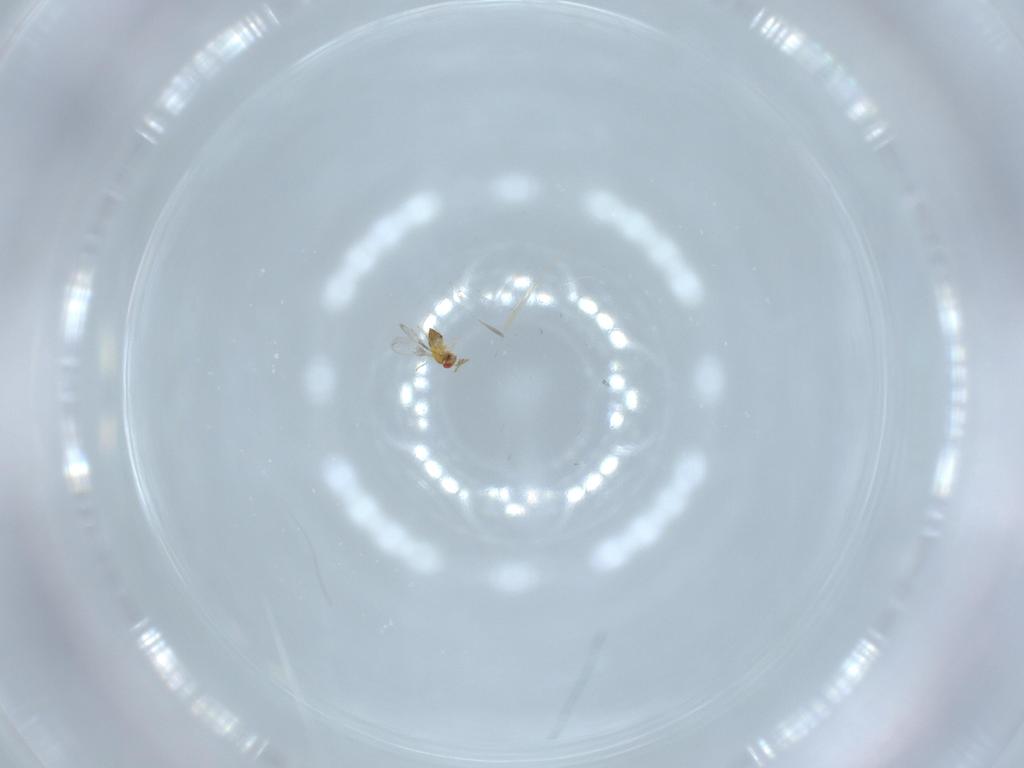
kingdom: Animalia
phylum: Arthropoda
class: Insecta
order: Hymenoptera
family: Trichogrammatidae
